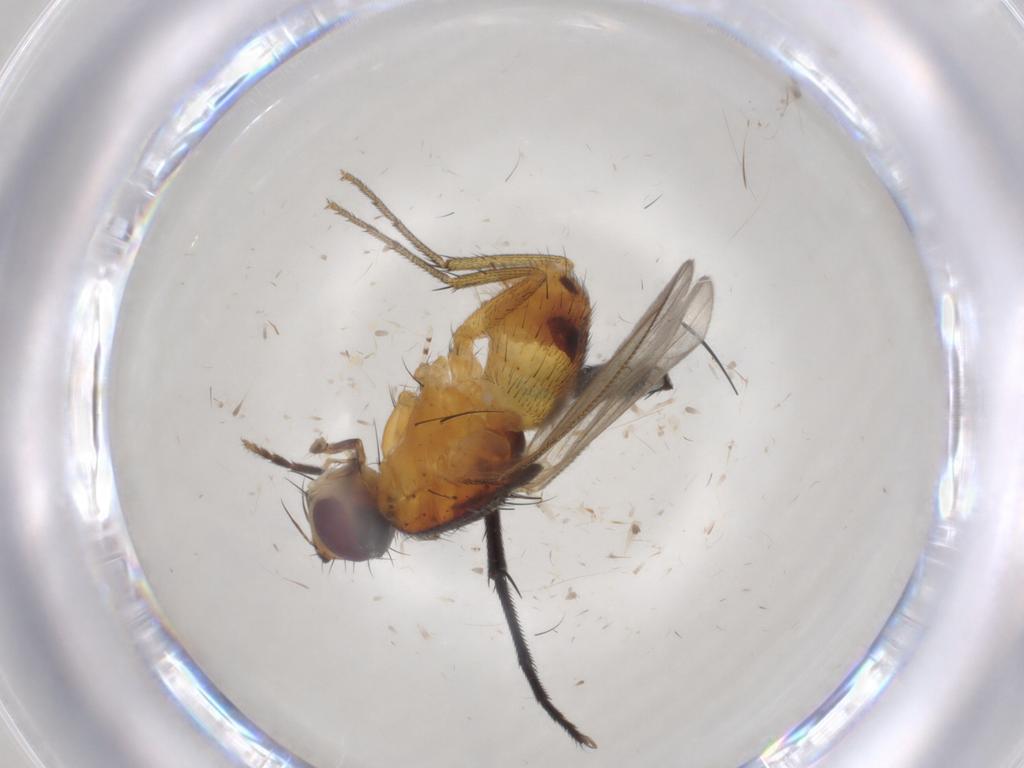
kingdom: Animalia
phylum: Arthropoda
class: Insecta
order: Diptera
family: Muscidae
